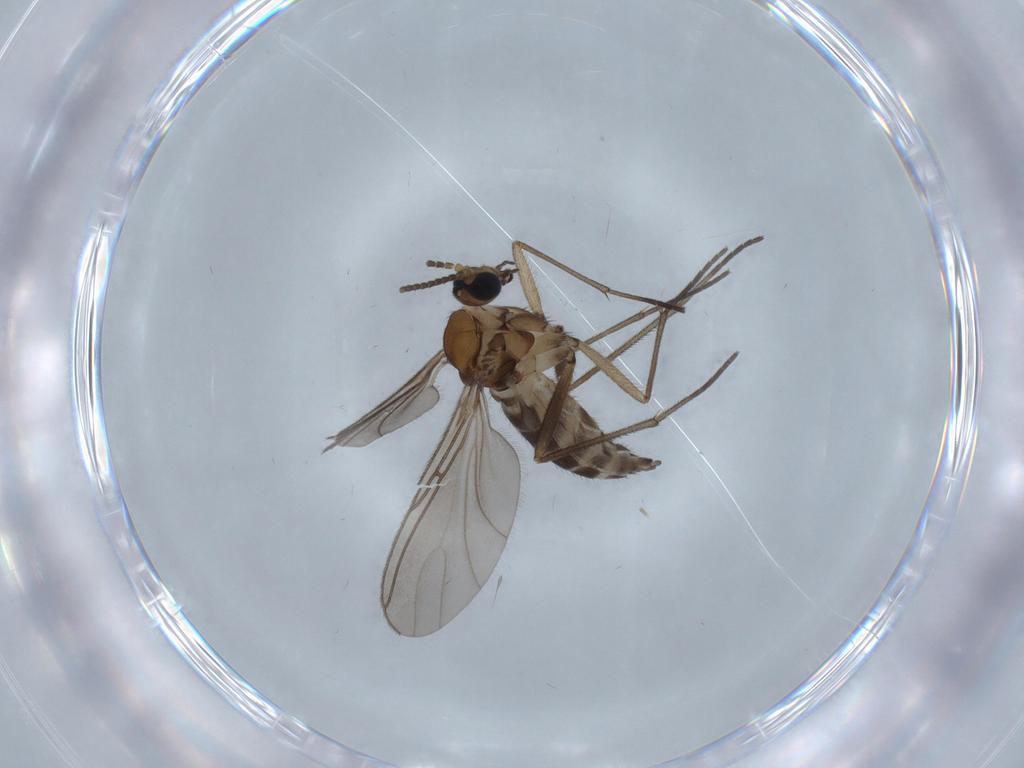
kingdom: Animalia
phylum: Arthropoda
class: Insecta
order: Diptera
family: Sciaridae
